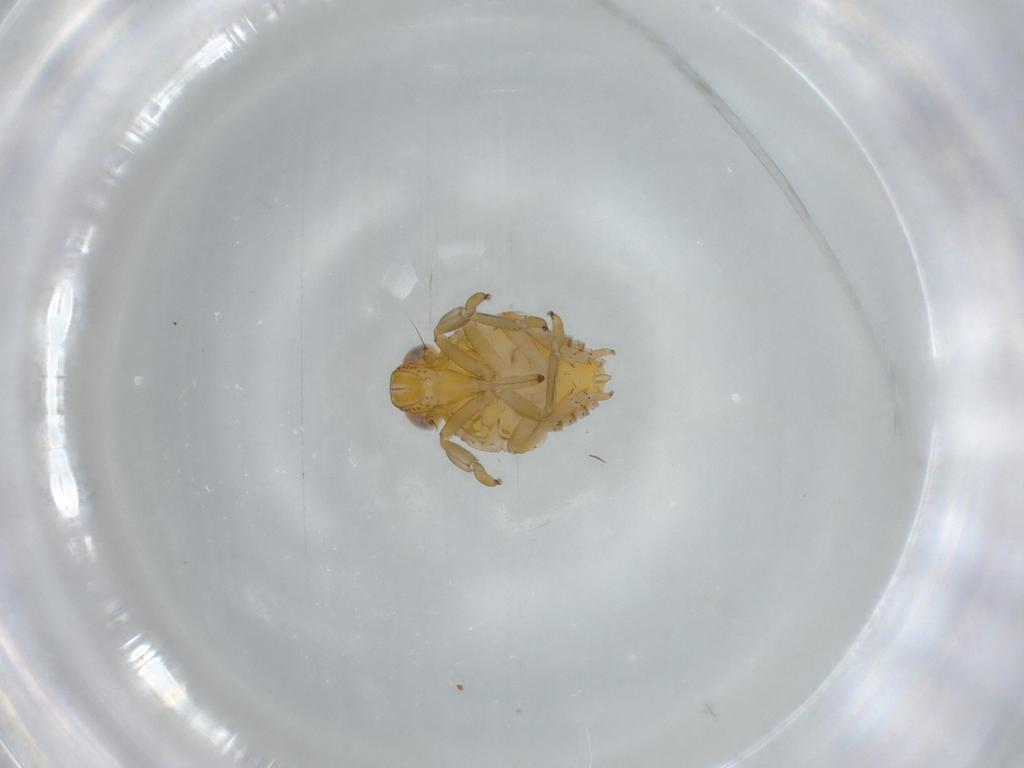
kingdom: Animalia
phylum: Arthropoda
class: Insecta
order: Hemiptera
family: Issidae
